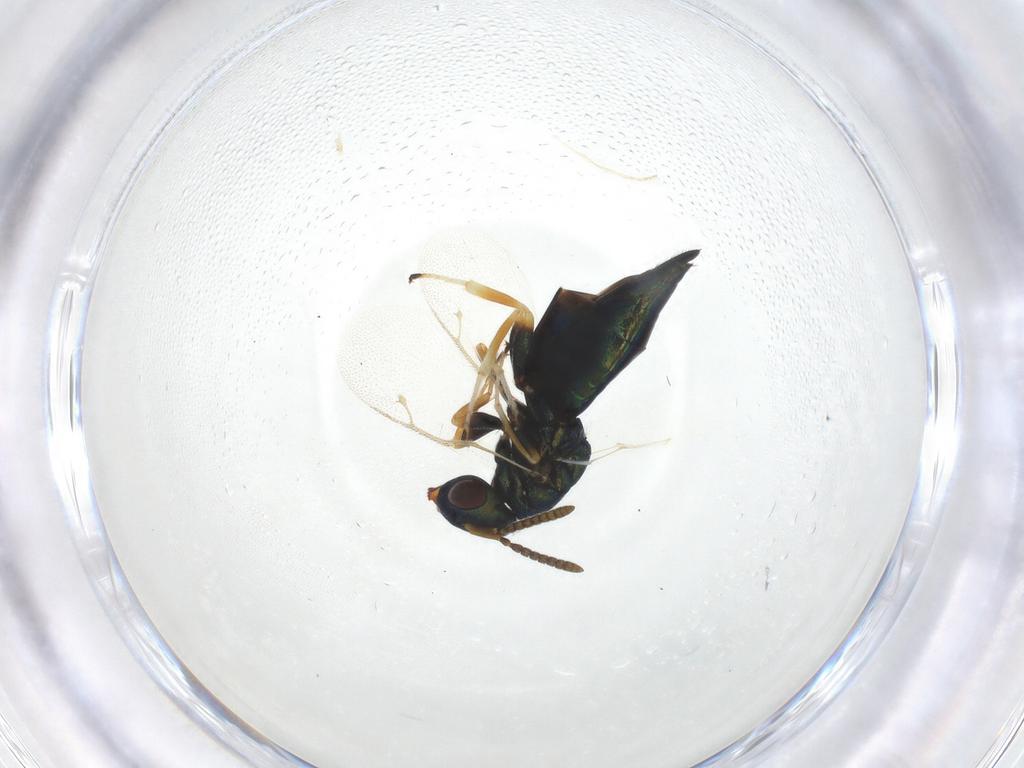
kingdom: Animalia
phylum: Arthropoda
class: Insecta
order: Hymenoptera
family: Pteromalidae
